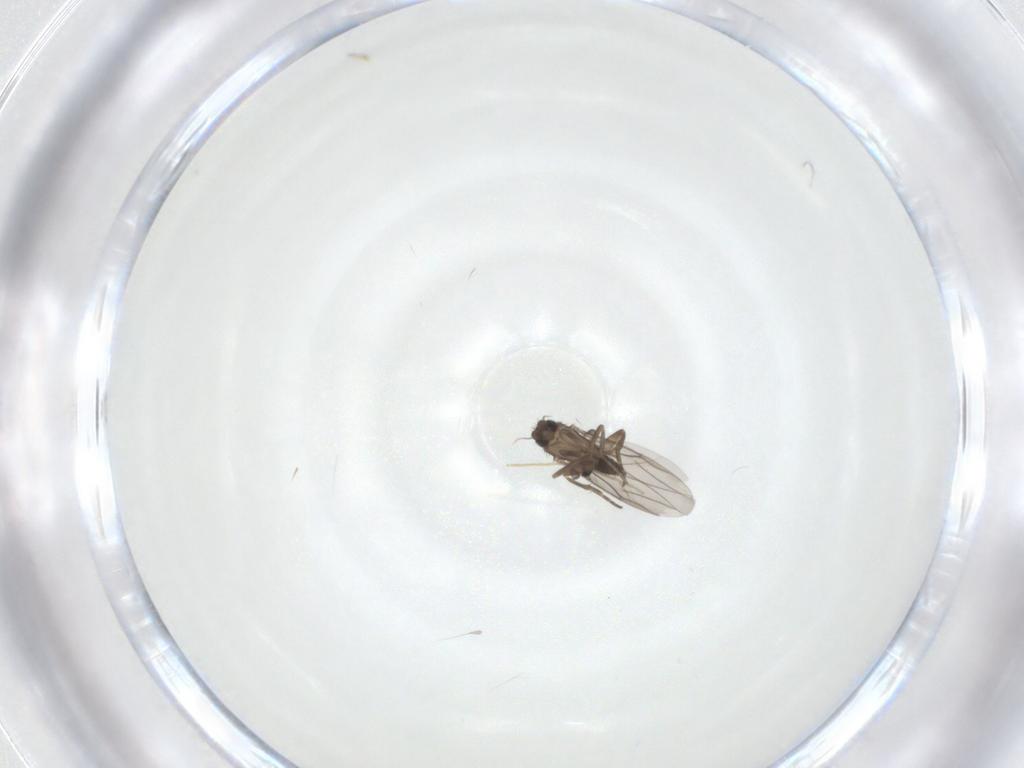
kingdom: Animalia
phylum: Arthropoda
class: Insecta
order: Diptera
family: Chironomidae
